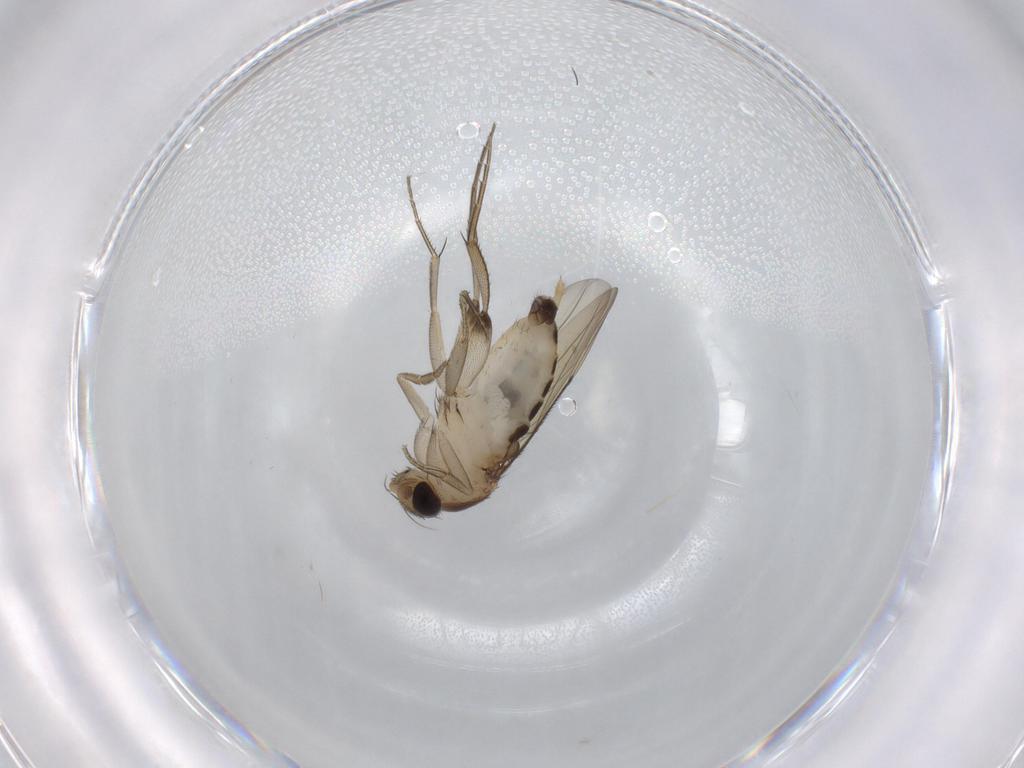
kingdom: Animalia
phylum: Arthropoda
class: Insecta
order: Diptera
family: Phoridae
